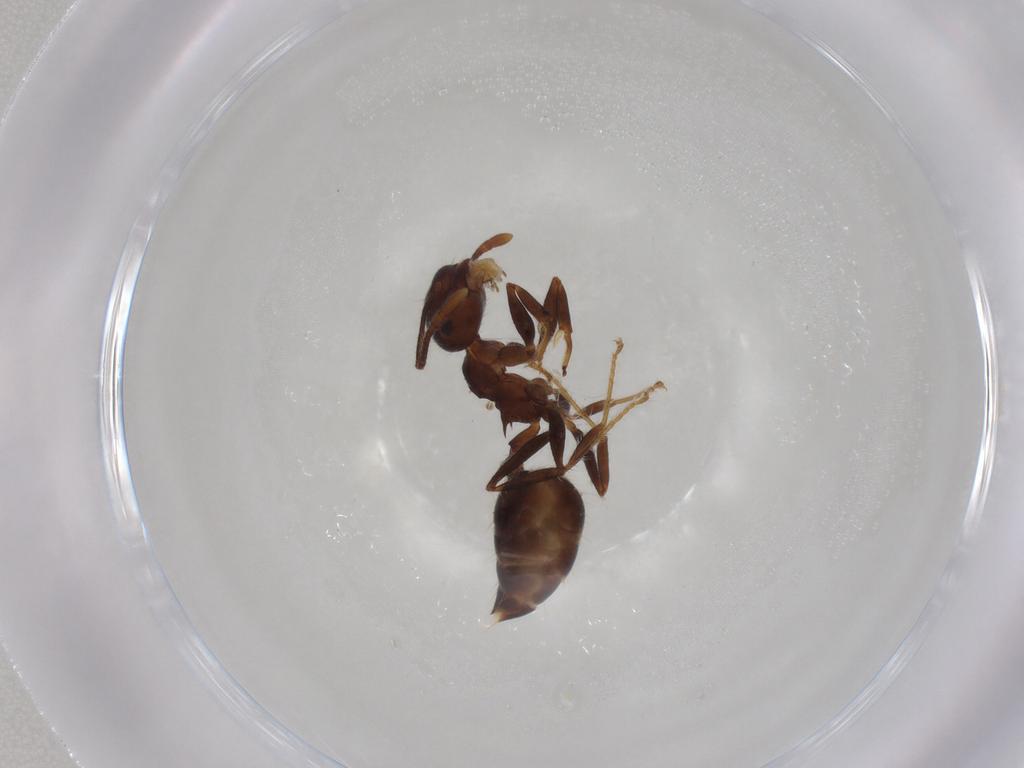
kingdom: Animalia
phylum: Arthropoda
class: Insecta
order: Hymenoptera
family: Formicidae
